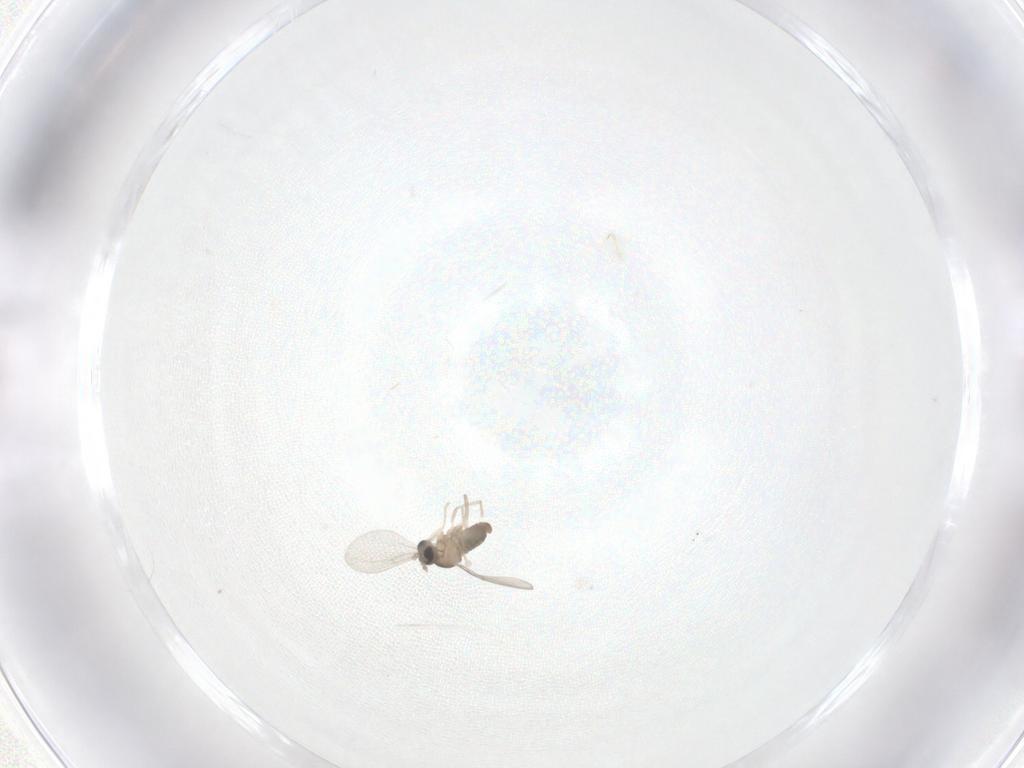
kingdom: Animalia
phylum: Arthropoda
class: Insecta
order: Diptera
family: Cecidomyiidae
